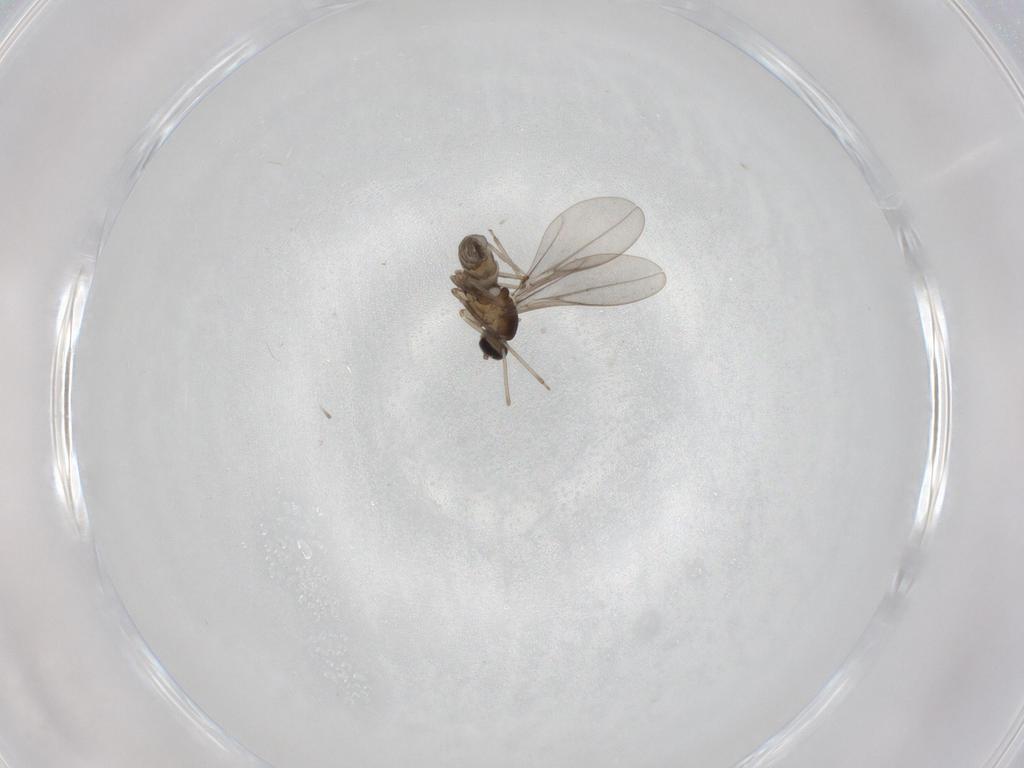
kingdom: Animalia
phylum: Arthropoda
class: Insecta
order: Diptera
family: Cecidomyiidae
